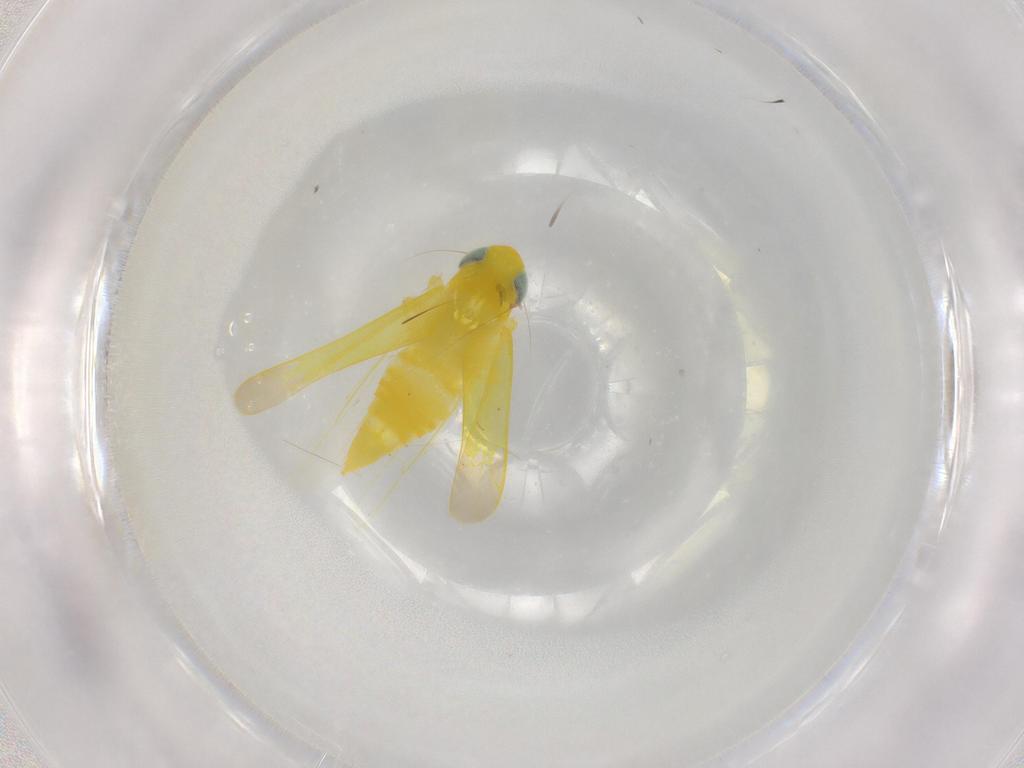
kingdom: Animalia
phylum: Arthropoda
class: Insecta
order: Hemiptera
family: Cicadellidae
